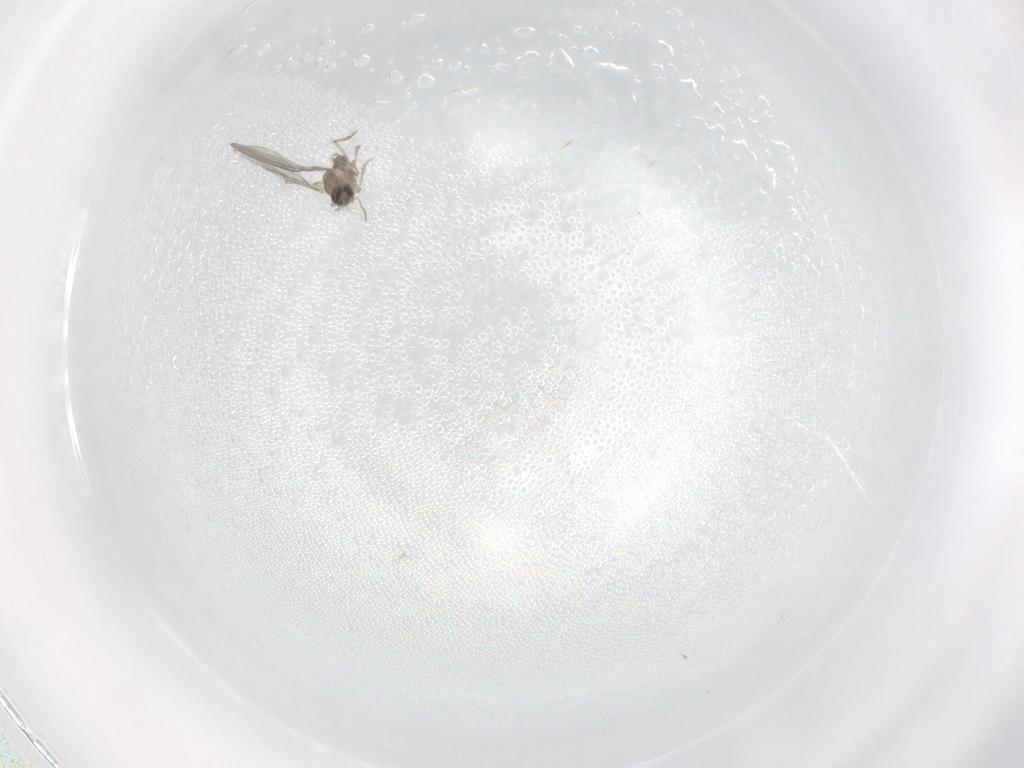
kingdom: Animalia
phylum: Arthropoda
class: Insecta
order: Diptera
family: Cecidomyiidae
